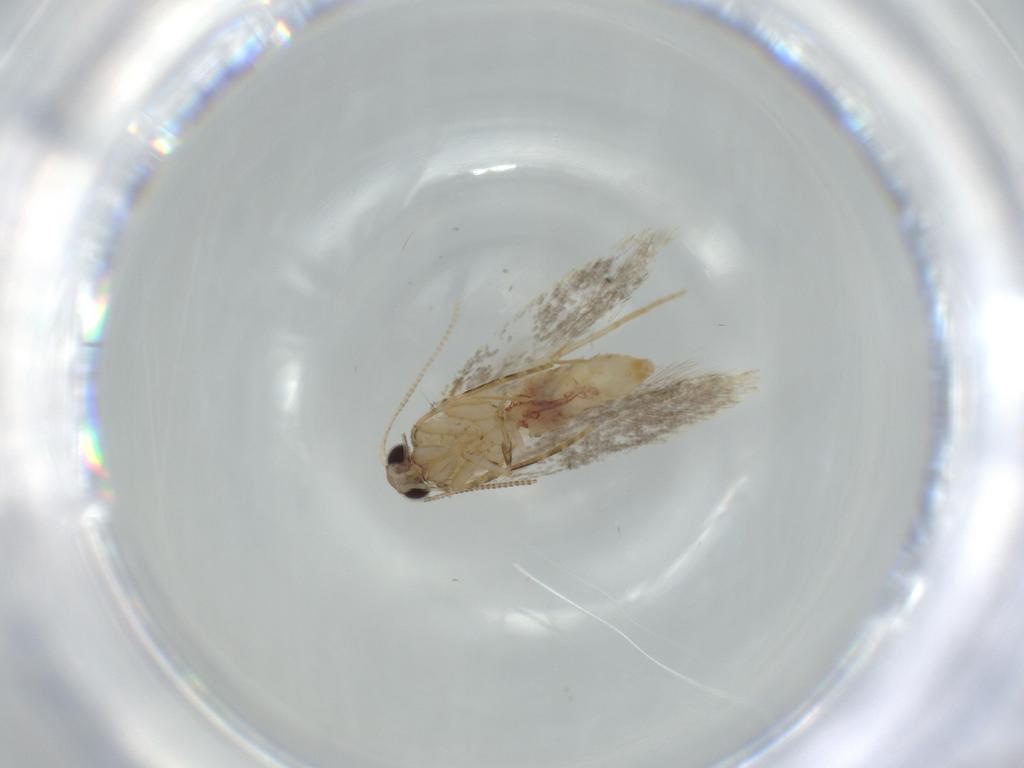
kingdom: Animalia
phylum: Arthropoda
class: Insecta
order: Lepidoptera
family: Tineidae
